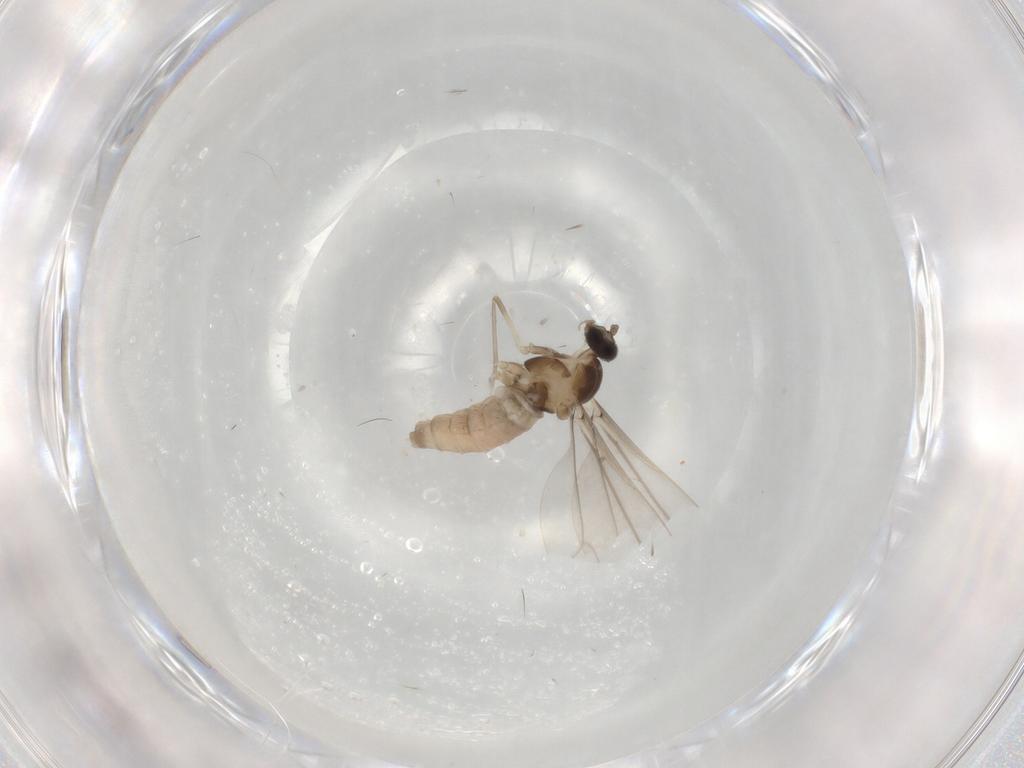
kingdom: Animalia
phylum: Arthropoda
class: Insecta
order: Diptera
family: Cecidomyiidae
